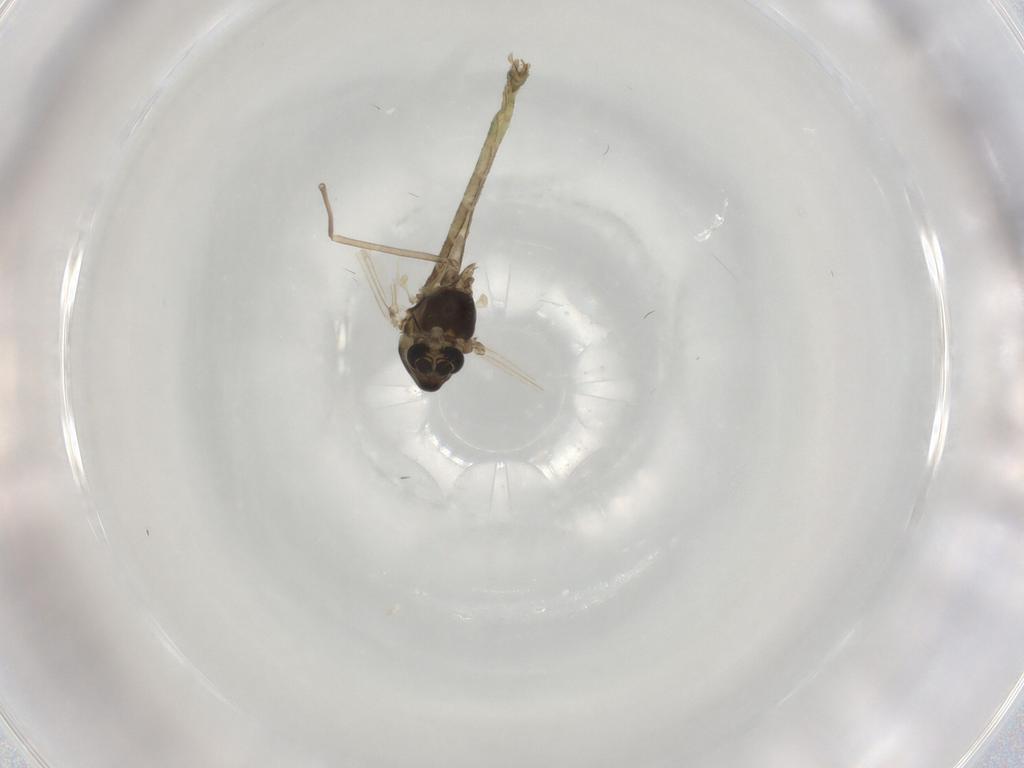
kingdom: Animalia
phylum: Arthropoda
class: Insecta
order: Diptera
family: Chironomidae
